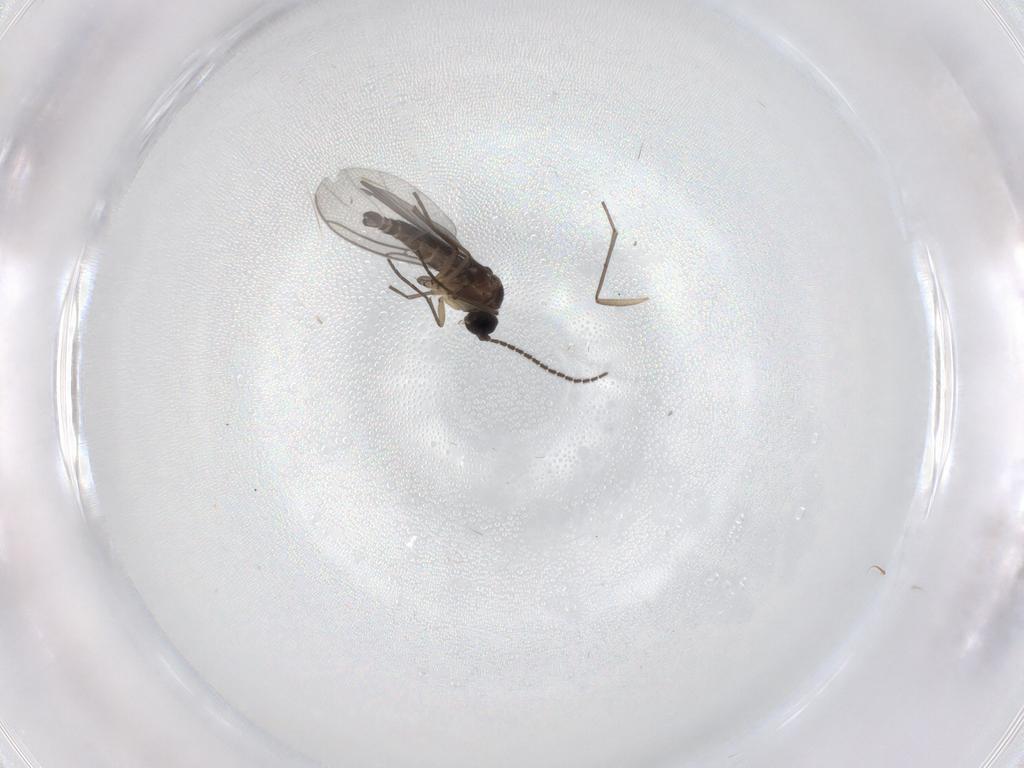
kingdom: Animalia
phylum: Arthropoda
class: Insecta
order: Diptera
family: Sciaridae
